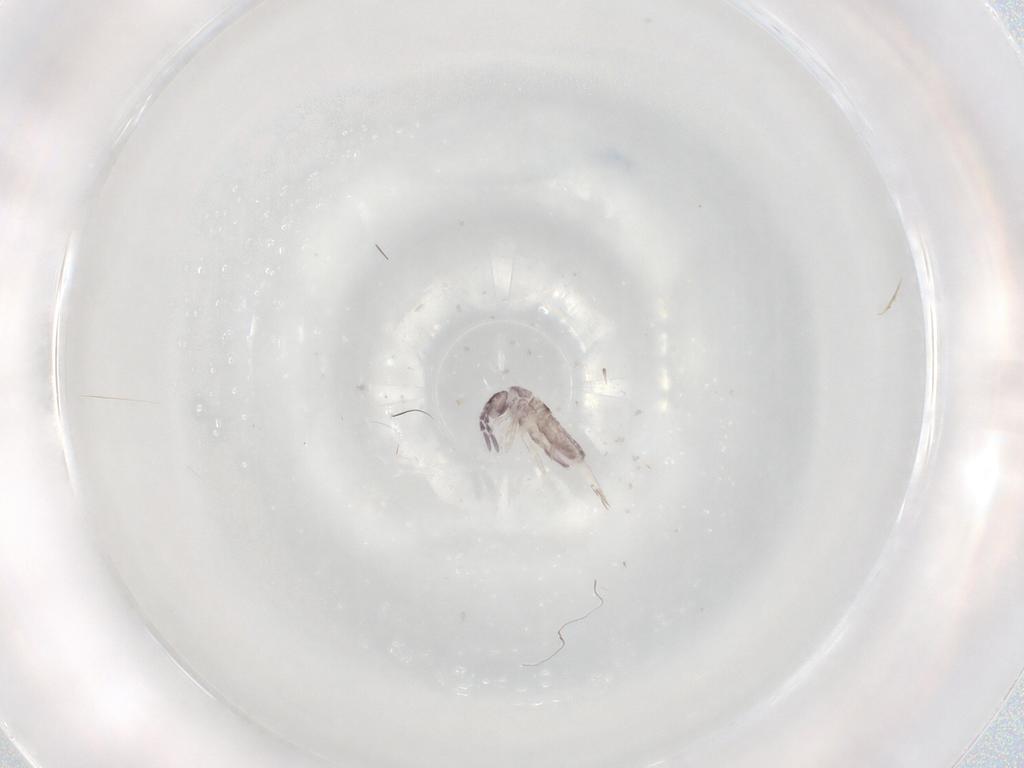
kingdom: Animalia
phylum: Arthropoda
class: Collembola
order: Entomobryomorpha
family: Entomobryidae
